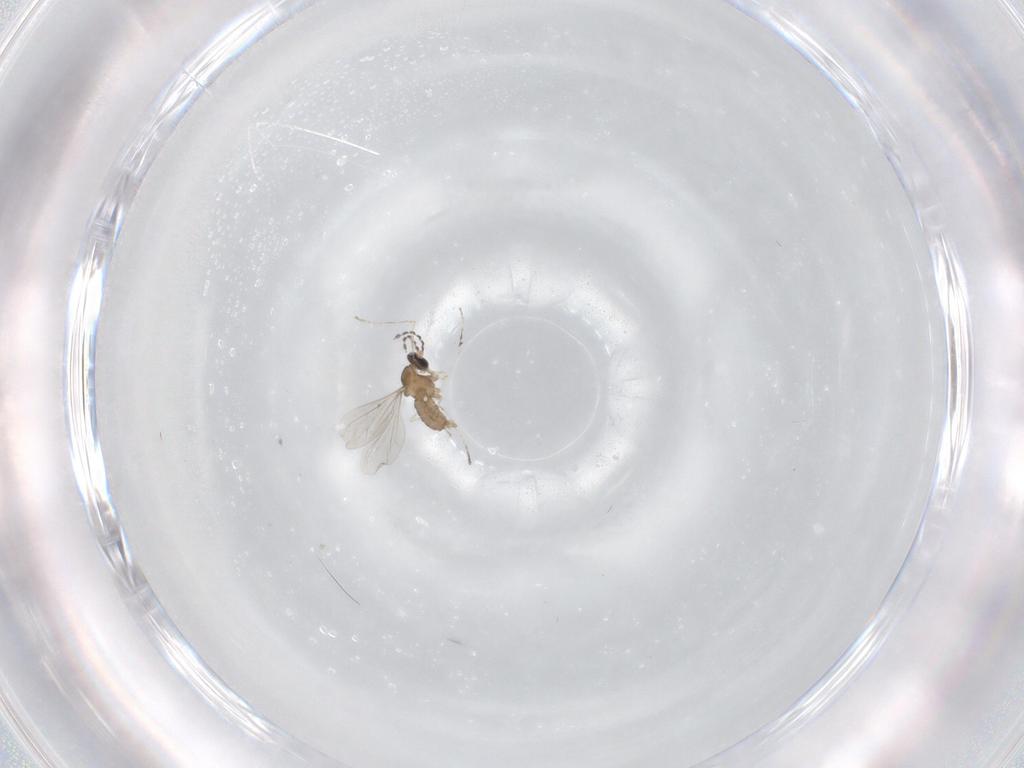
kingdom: Animalia
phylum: Arthropoda
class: Insecta
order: Diptera
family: Cecidomyiidae
